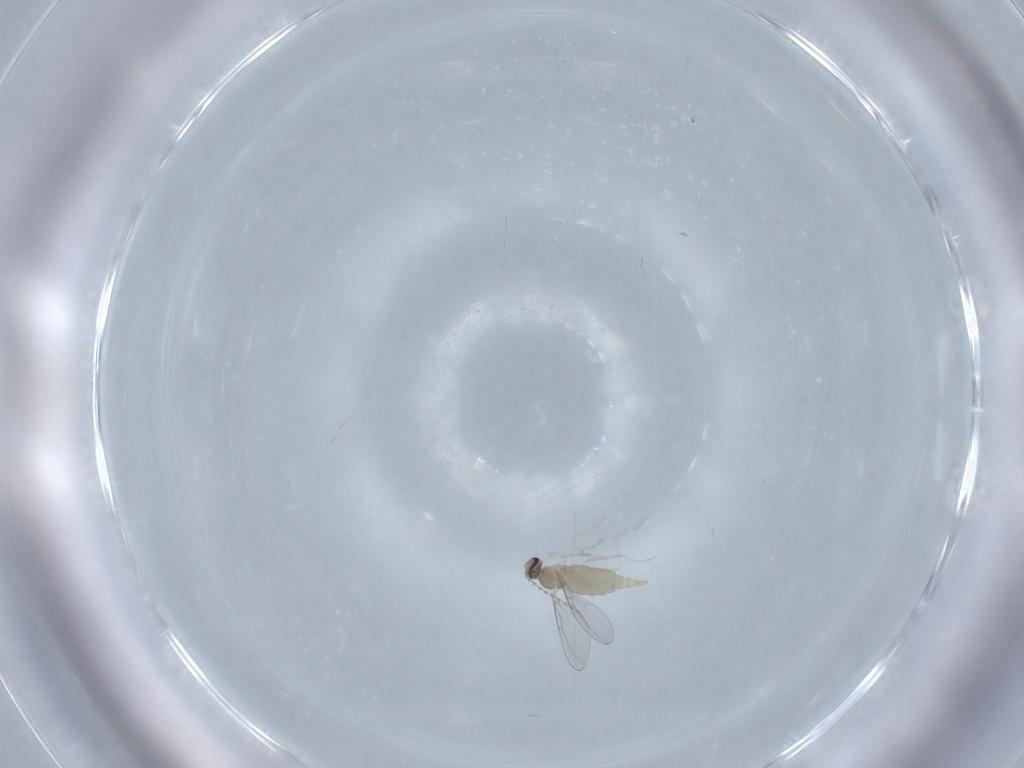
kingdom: Animalia
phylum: Arthropoda
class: Insecta
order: Diptera
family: Cecidomyiidae
